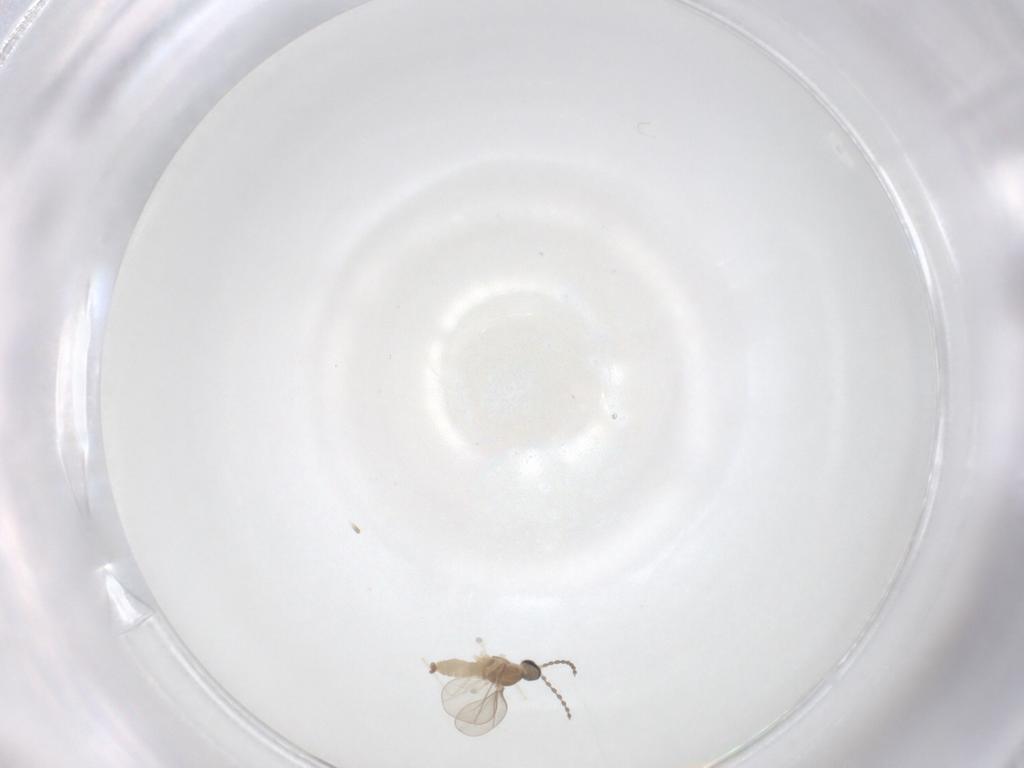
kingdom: Animalia
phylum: Arthropoda
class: Insecta
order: Diptera
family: Cecidomyiidae
